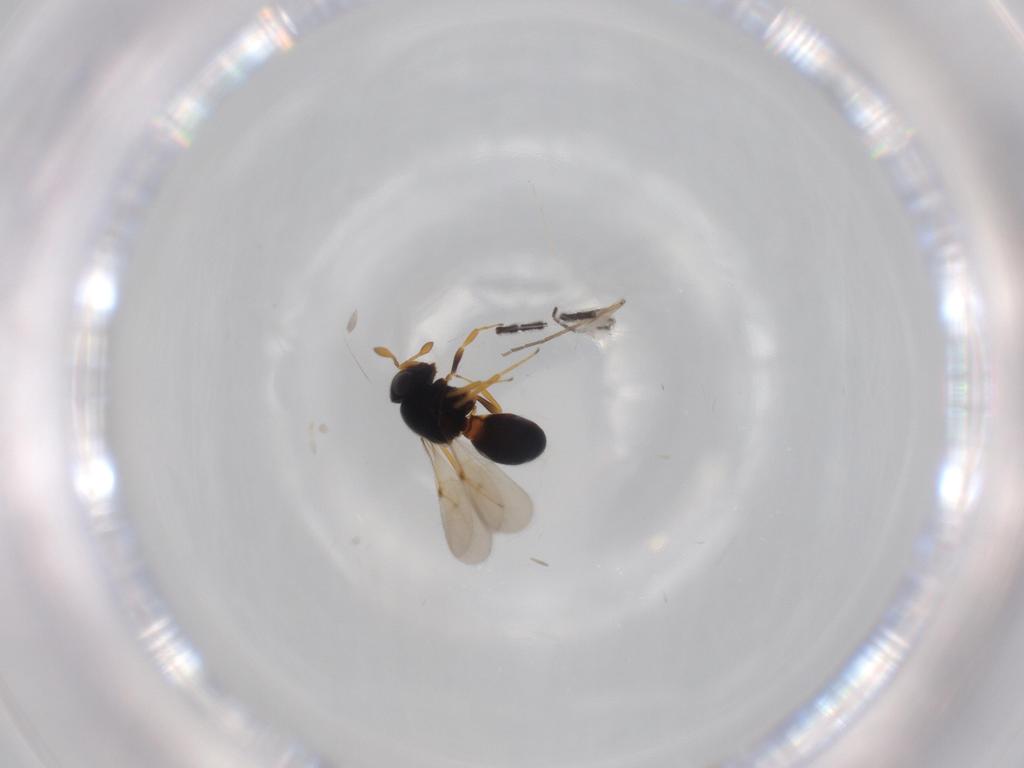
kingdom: Animalia
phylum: Arthropoda
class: Insecta
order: Hymenoptera
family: Scelionidae
